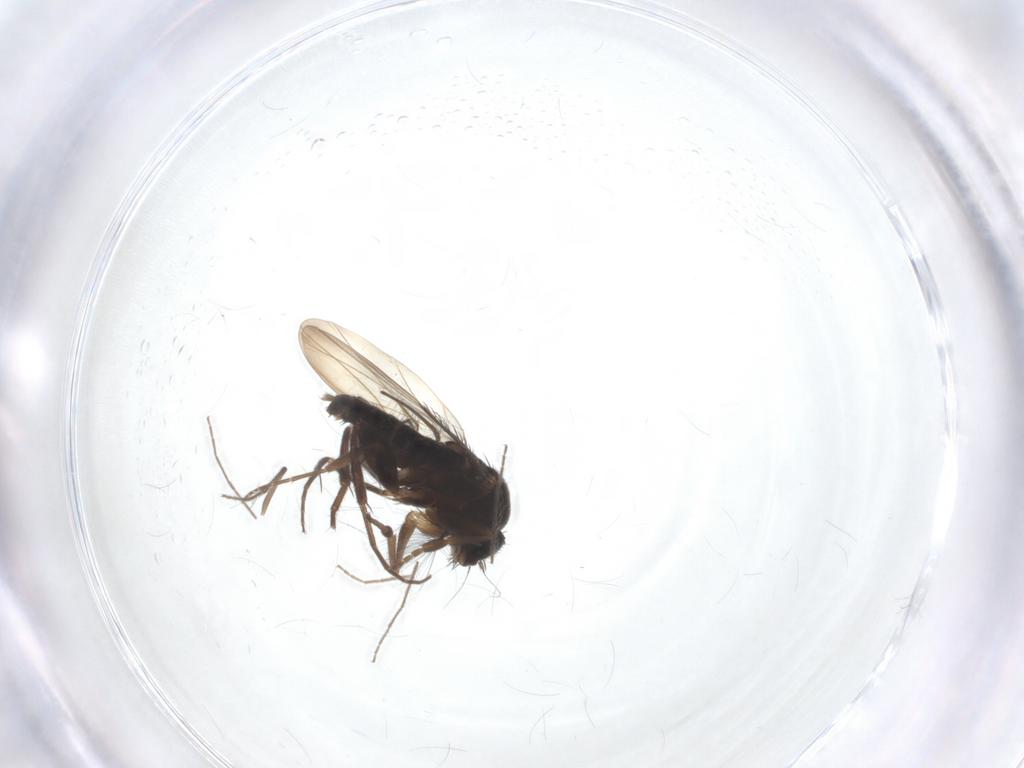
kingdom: Animalia
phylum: Arthropoda
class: Insecta
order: Diptera
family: Phoridae
